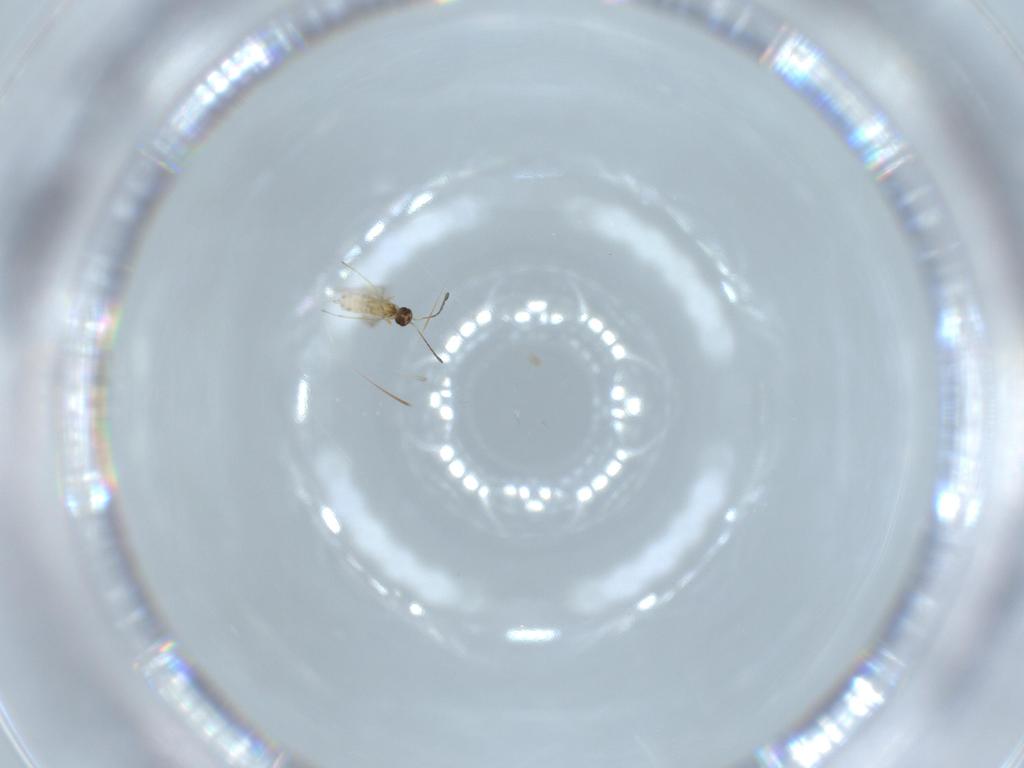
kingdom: Animalia
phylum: Arthropoda
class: Insecta
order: Hymenoptera
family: Mymaridae
